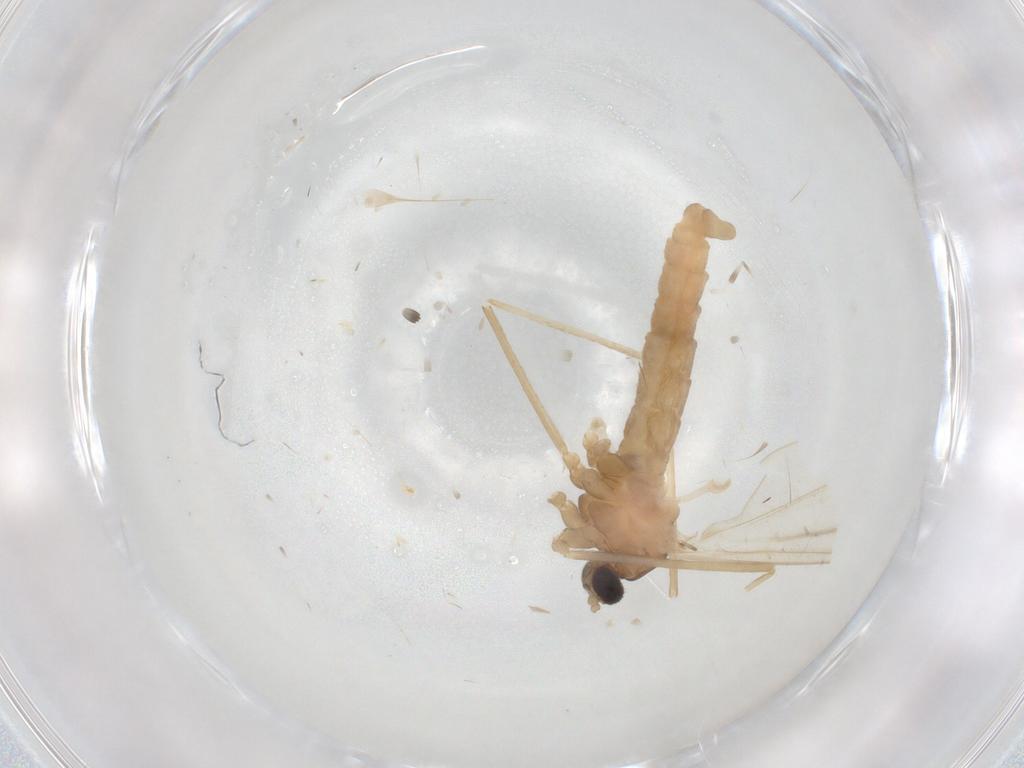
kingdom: Animalia
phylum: Arthropoda
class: Insecta
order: Diptera
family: Cecidomyiidae
